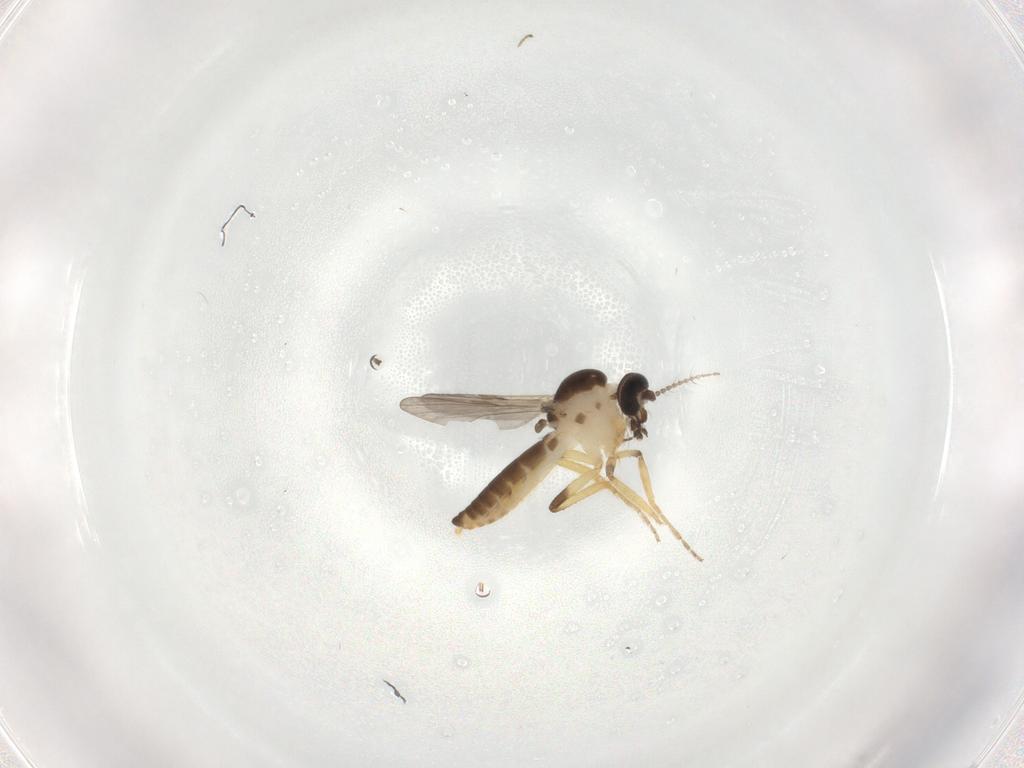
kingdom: Animalia
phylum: Arthropoda
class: Insecta
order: Diptera
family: Ceratopogonidae
